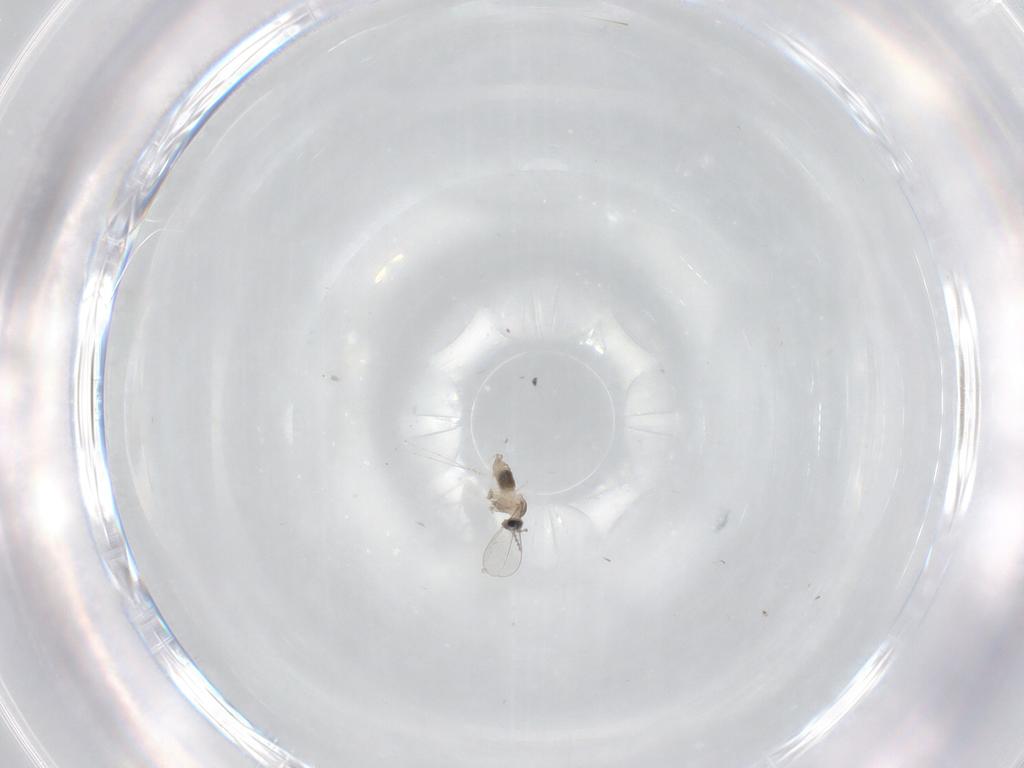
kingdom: Animalia
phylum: Arthropoda
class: Insecta
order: Diptera
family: Cecidomyiidae
